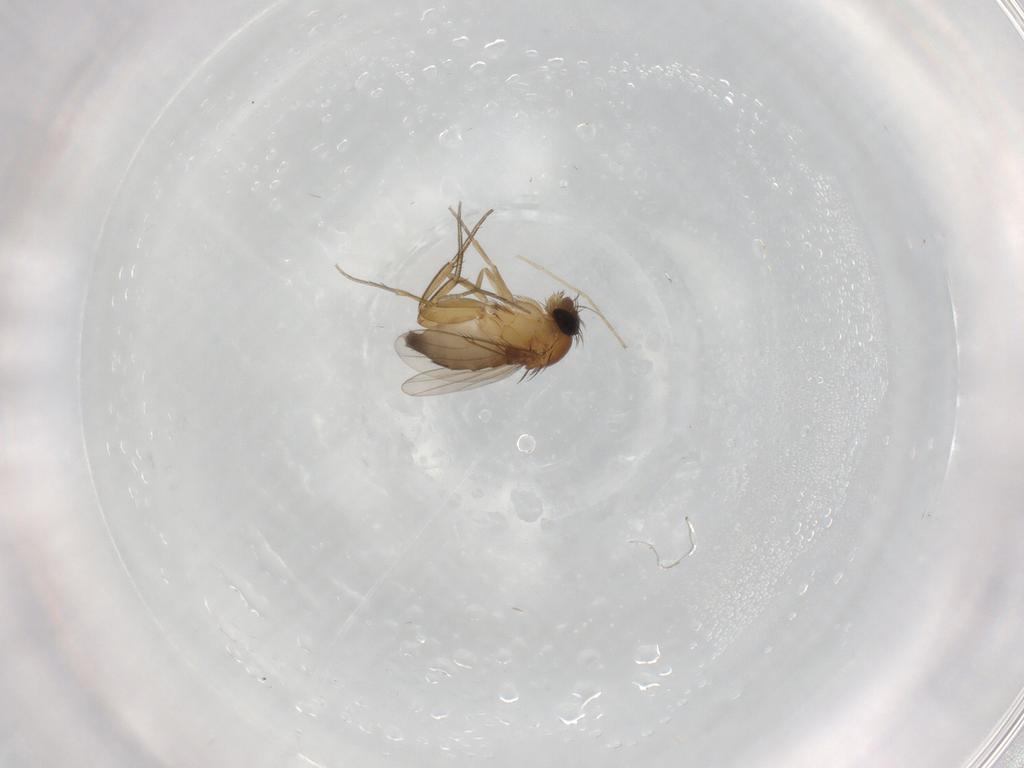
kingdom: Animalia
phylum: Arthropoda
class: Insecta
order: Diptera
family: Phoridae
